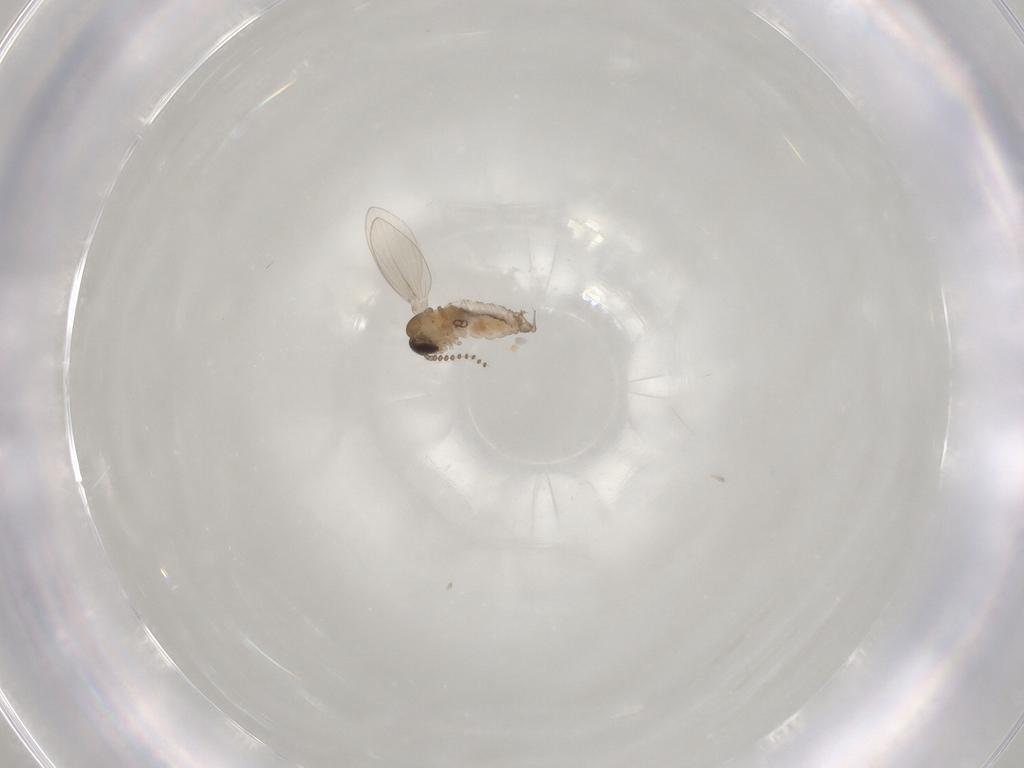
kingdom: Animalia
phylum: Arthropoda
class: Insecta
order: Diptera
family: Psychodidae
